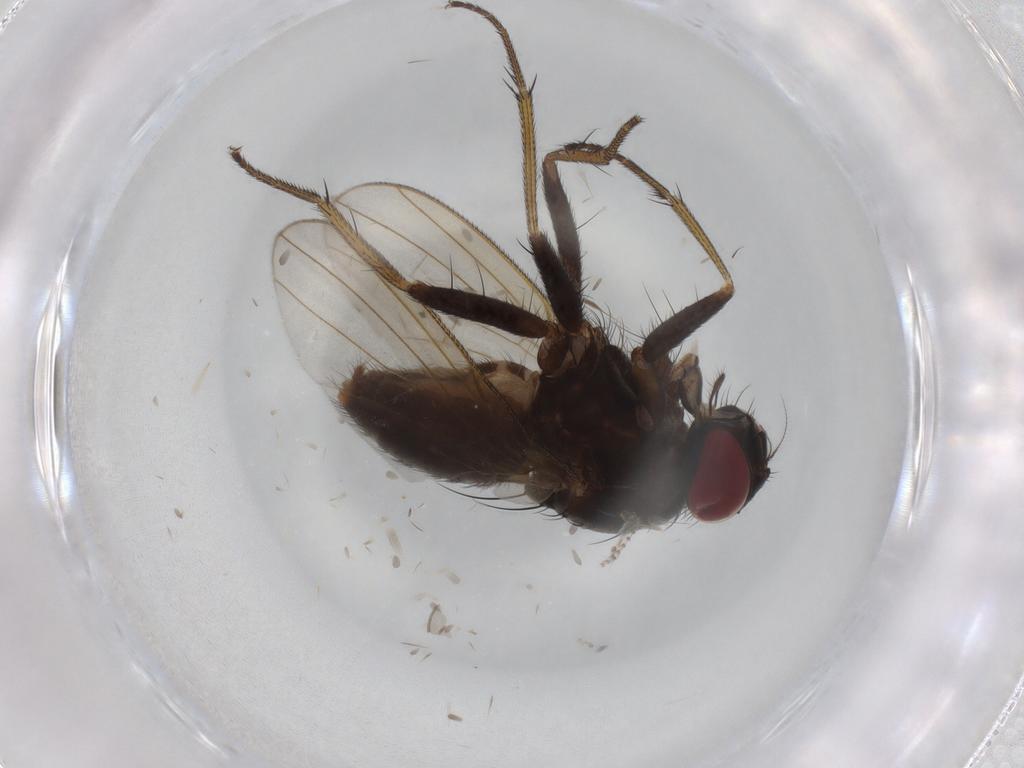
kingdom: Animalia
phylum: Arthropoda
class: Insecta
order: Diptera
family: Muscidae
